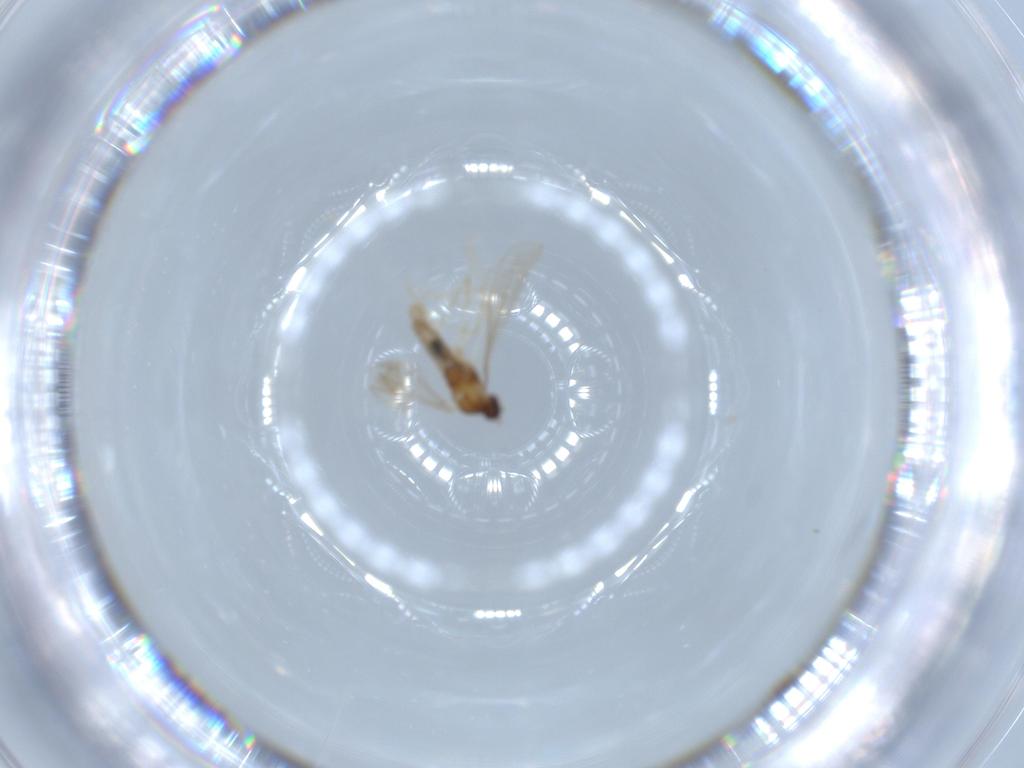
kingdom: Animalia
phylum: Arthropoda
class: Insecta
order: Diptera
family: Cecidomyiidae
